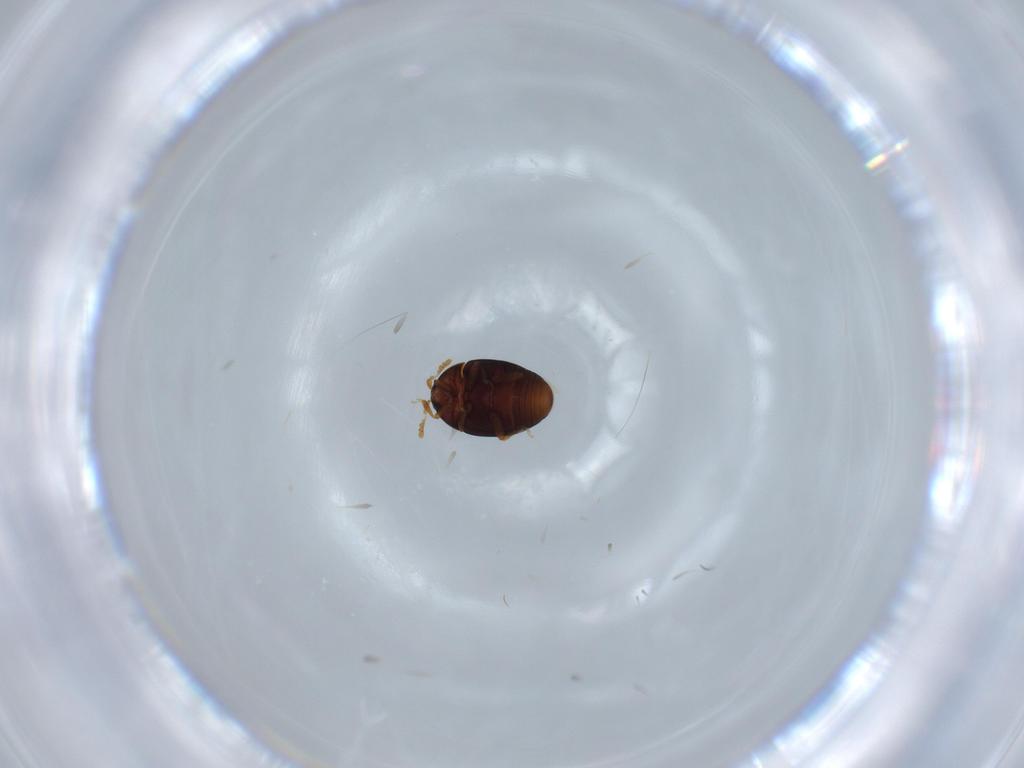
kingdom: Animalia
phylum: Arthropoda
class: Insecta
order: Coleoptera
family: Corylophidae
